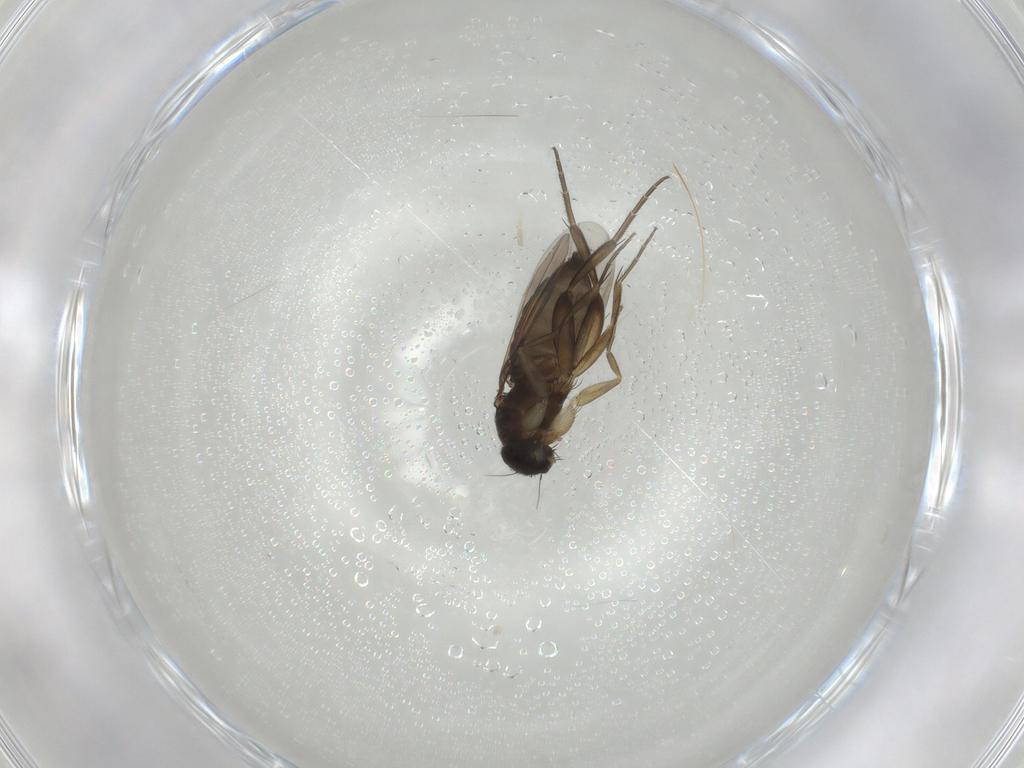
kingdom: Animalia
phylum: Arthropoda
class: Insecta
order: Diptera
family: Phoridae
